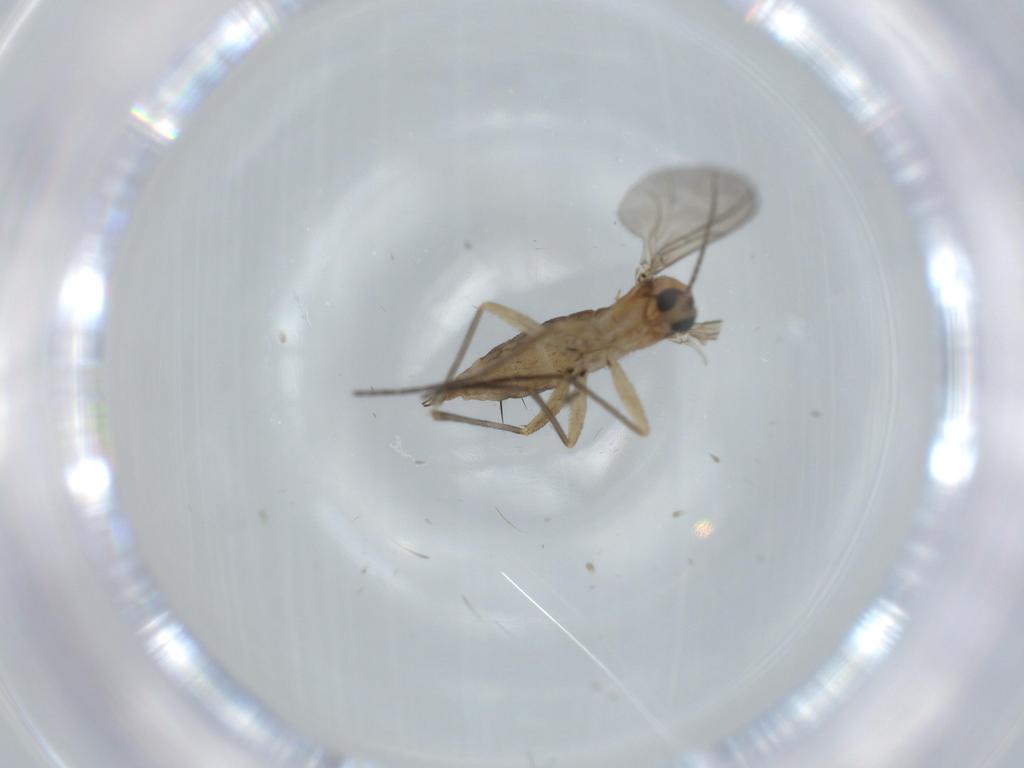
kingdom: Animalia
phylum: Arthropoda
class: Insecta
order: Diptera
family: Sciaridae
